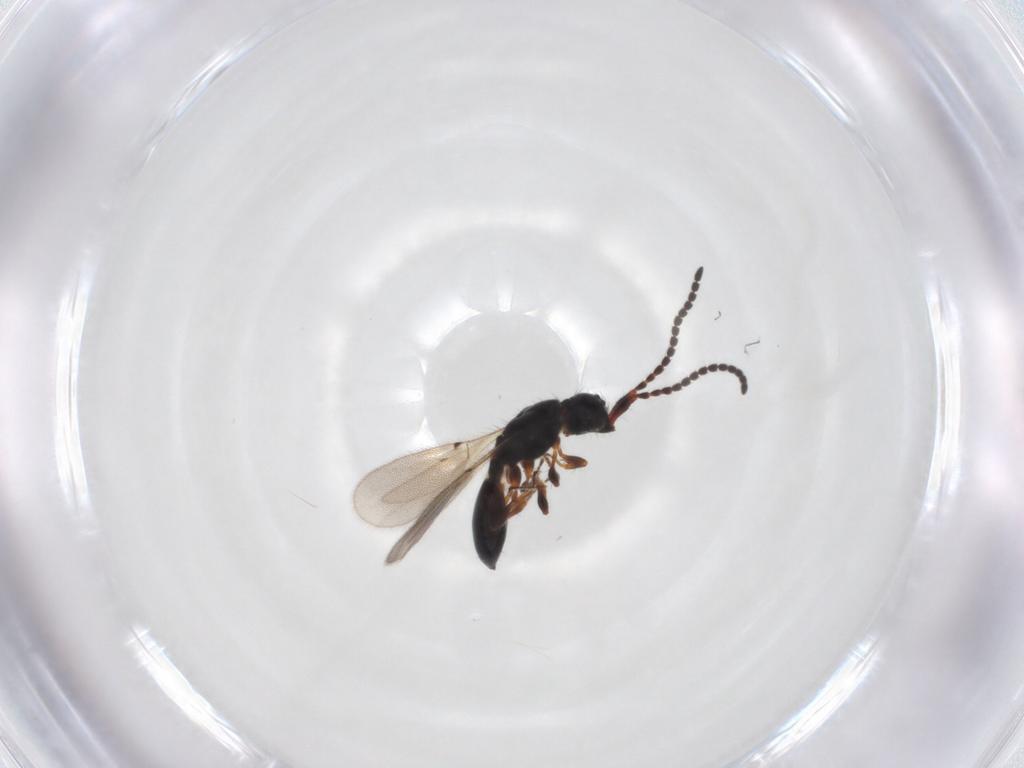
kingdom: Animalia
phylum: Arthropoda
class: Insecta
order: Hymenoptera
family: Diapriidae
